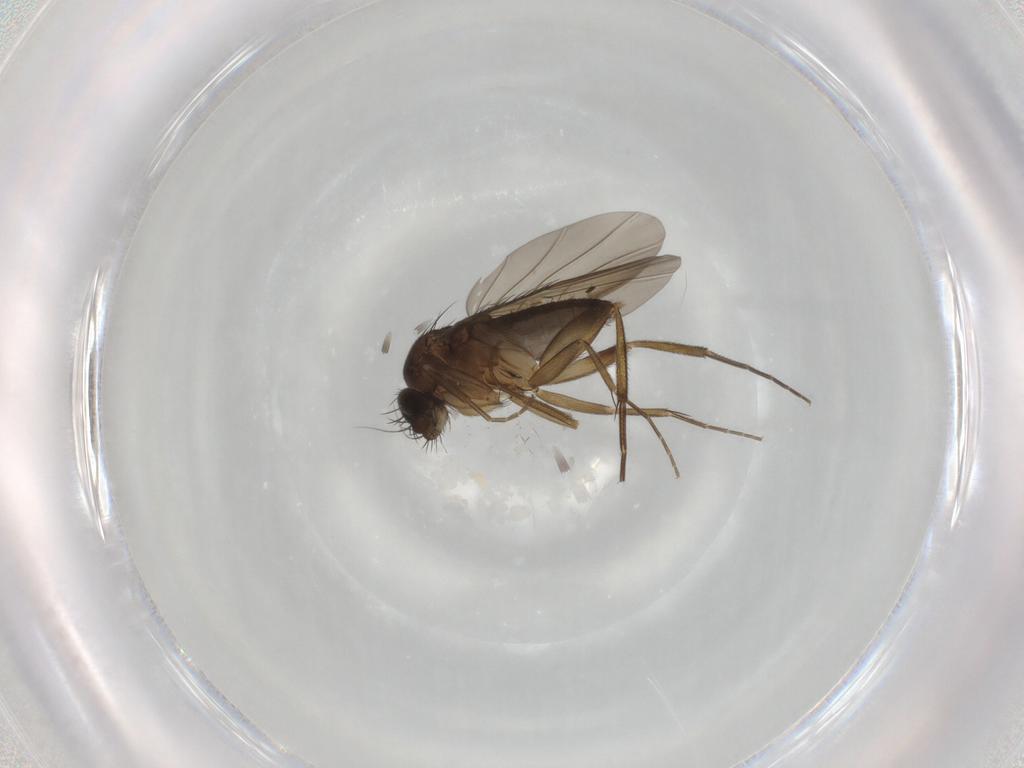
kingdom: Animalia
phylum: Arthropoda
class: Insecta
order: Diptera
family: Phoridae
